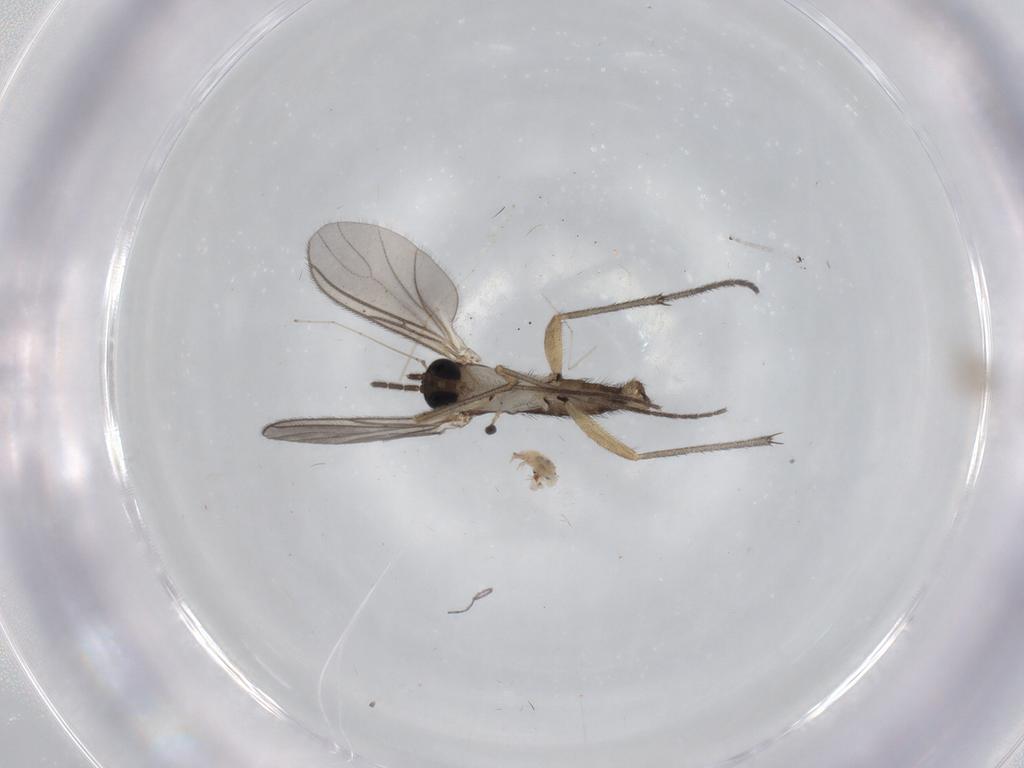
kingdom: Animalia
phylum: Arthropoda
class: Insecta
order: Diptera
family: Sciaridae
